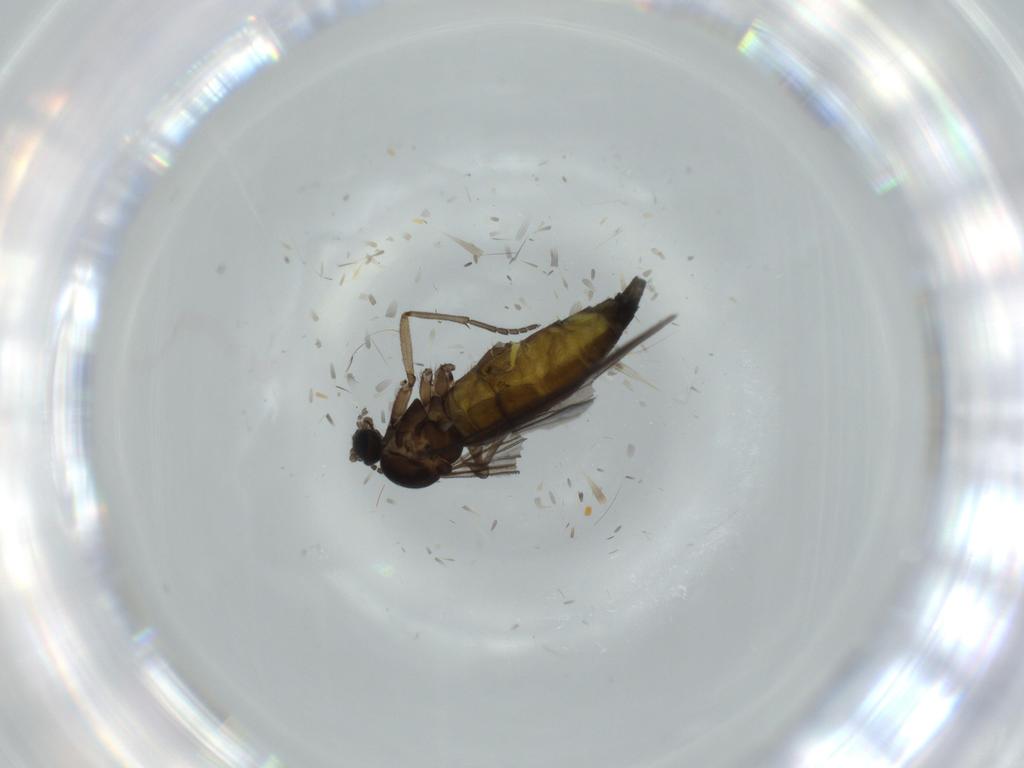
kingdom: Animalia
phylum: Arthropoda
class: Insecta
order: Diptera
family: Sciaridae
